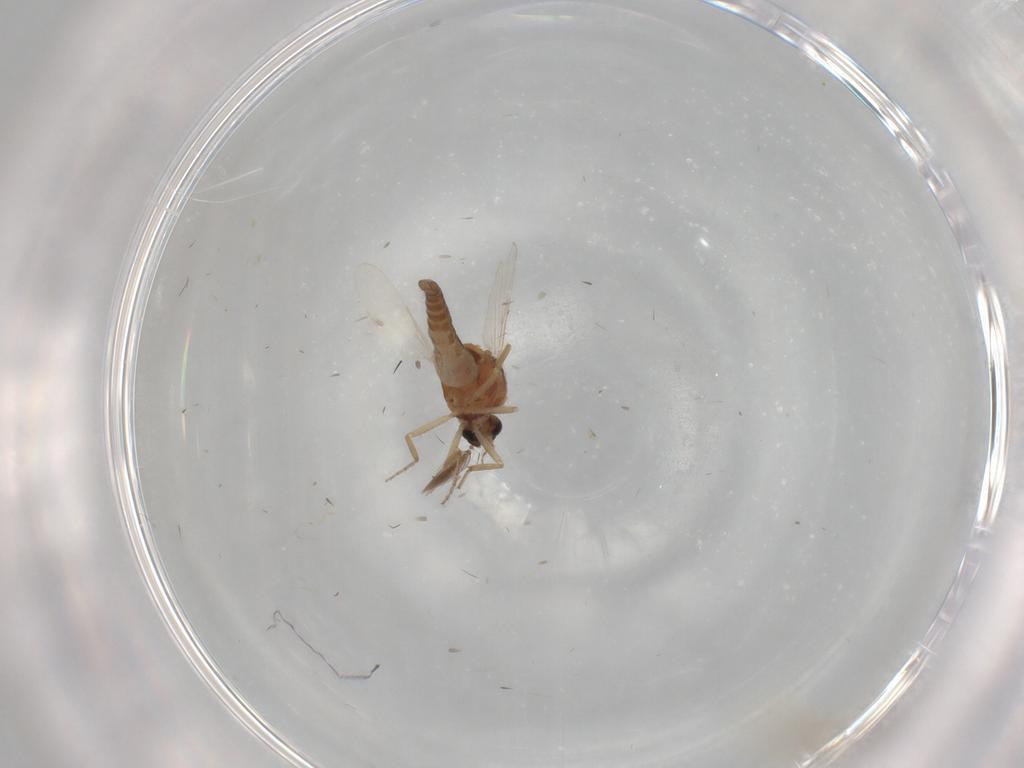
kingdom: Animalia
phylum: Arthropoda
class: Insecta
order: Diptera
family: Ceratopogonidae
